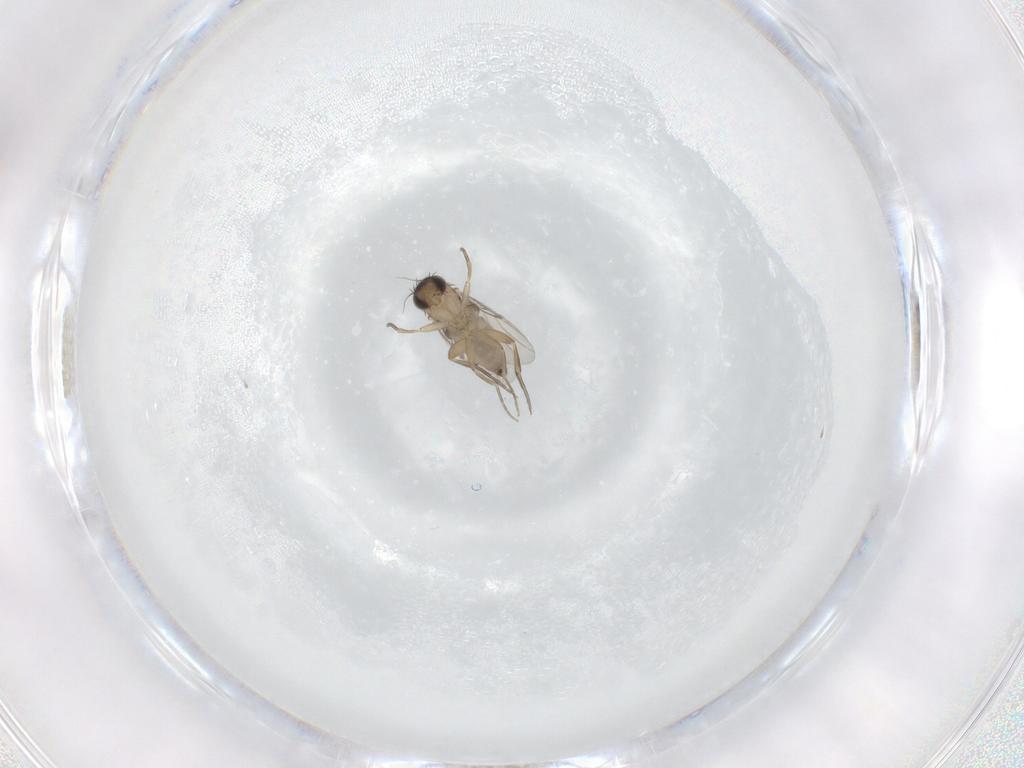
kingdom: Animalia
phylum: Arthropoda
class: Insecta
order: Diptera
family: Phoridae
